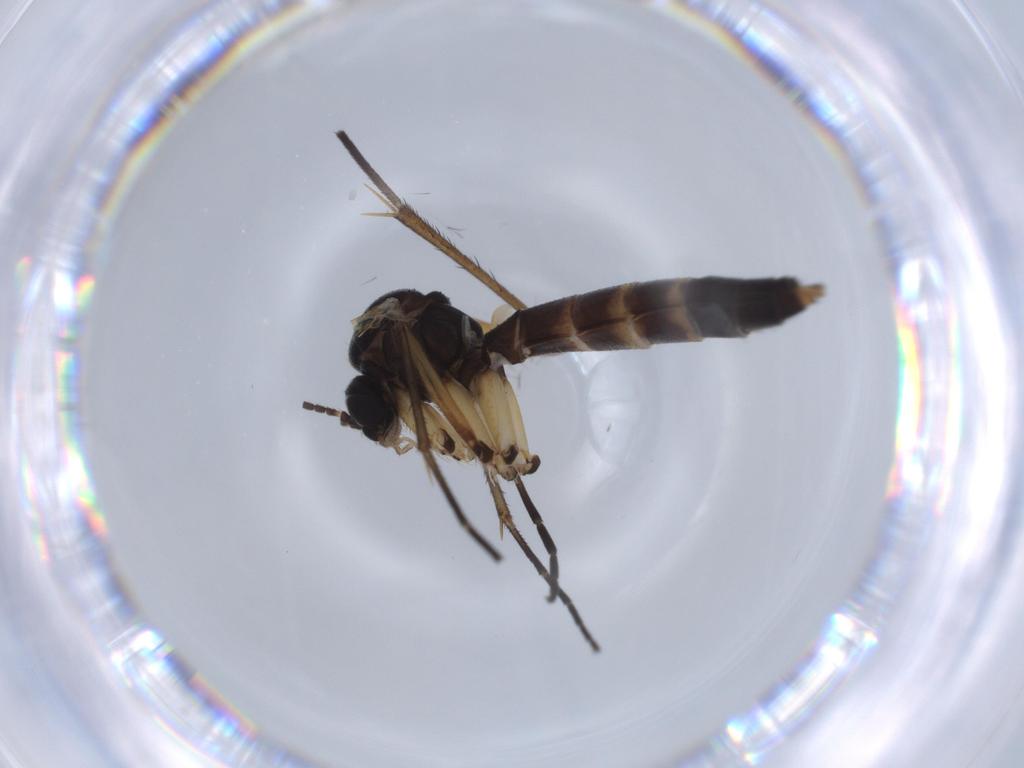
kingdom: Animalia
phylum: Arthropoda
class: Insecta
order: Diptera
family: Mycetophilidae
